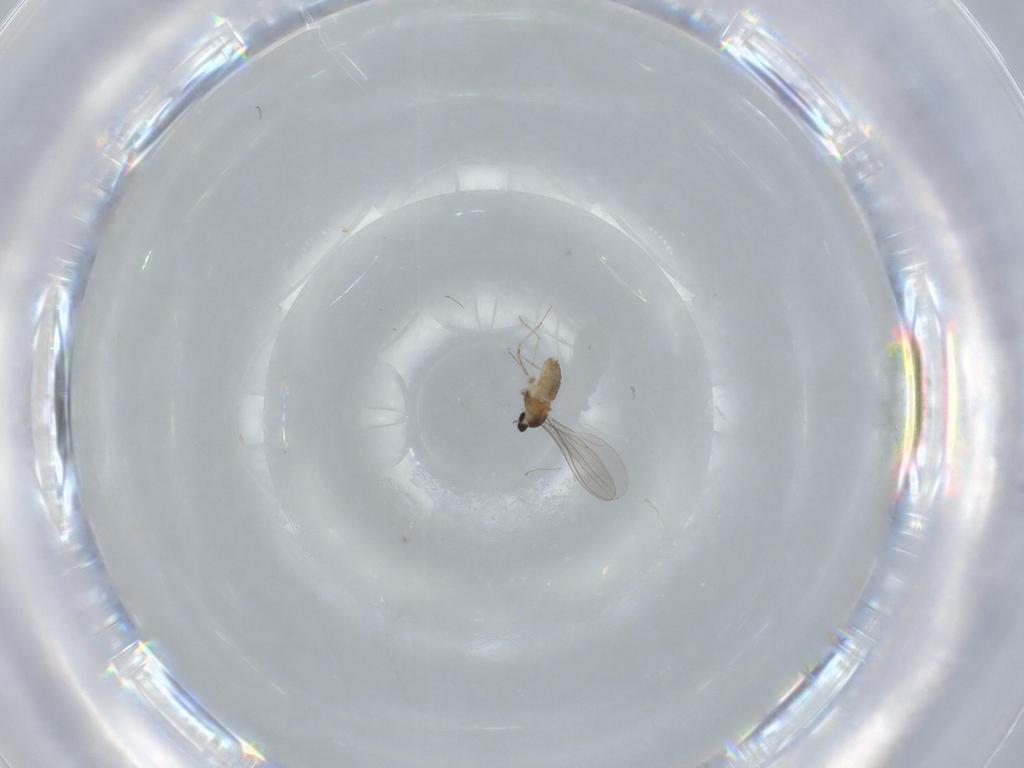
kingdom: Animalia
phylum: Arthropoda
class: Insecta
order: Diptera
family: Cecidomyiidae
